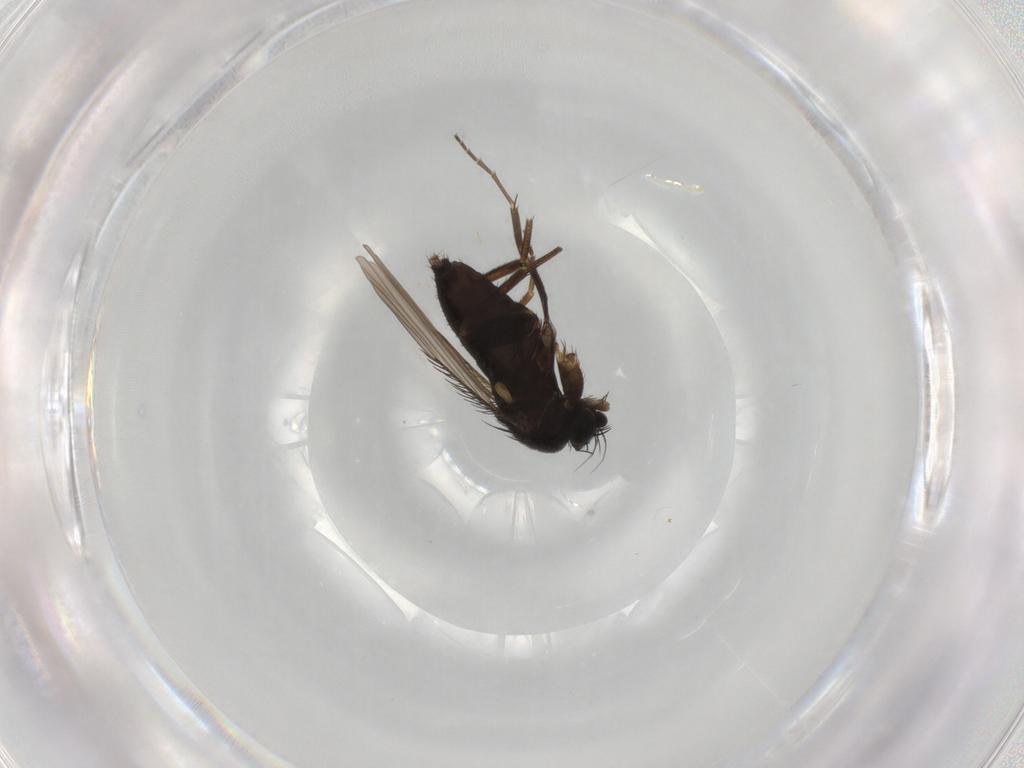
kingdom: Animalia
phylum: Arthropoda
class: Insecta
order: Diptera
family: Phoridae
